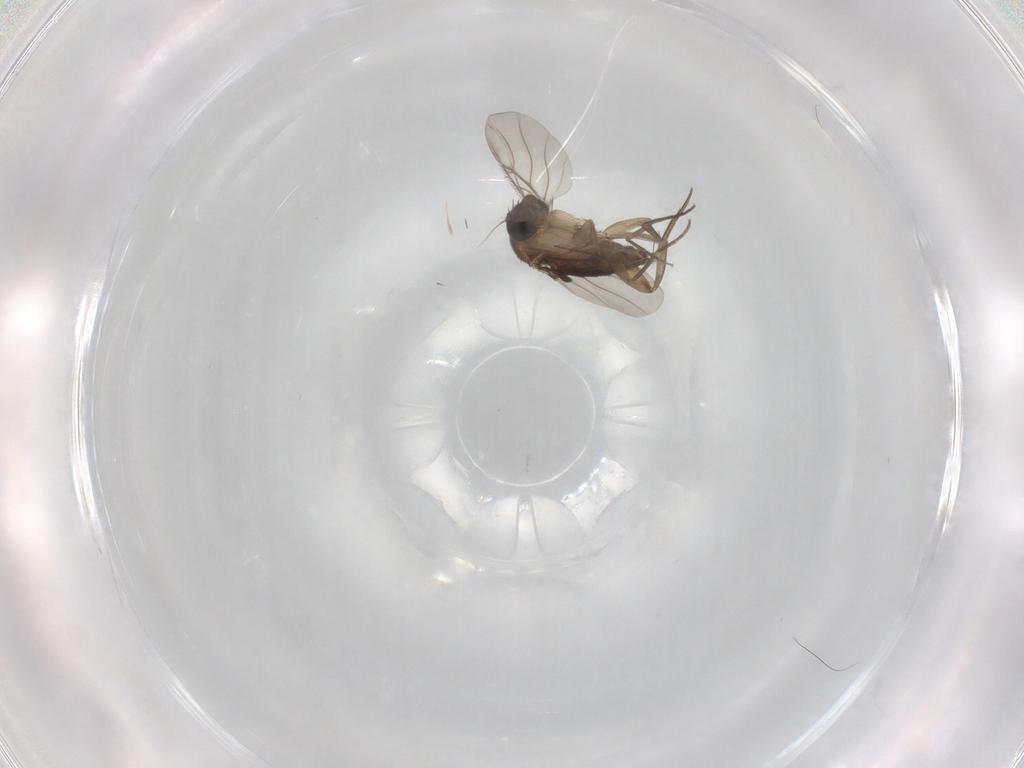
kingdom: Animalia
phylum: Arthropoda
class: Insecta
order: Diptera
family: Phoridae
